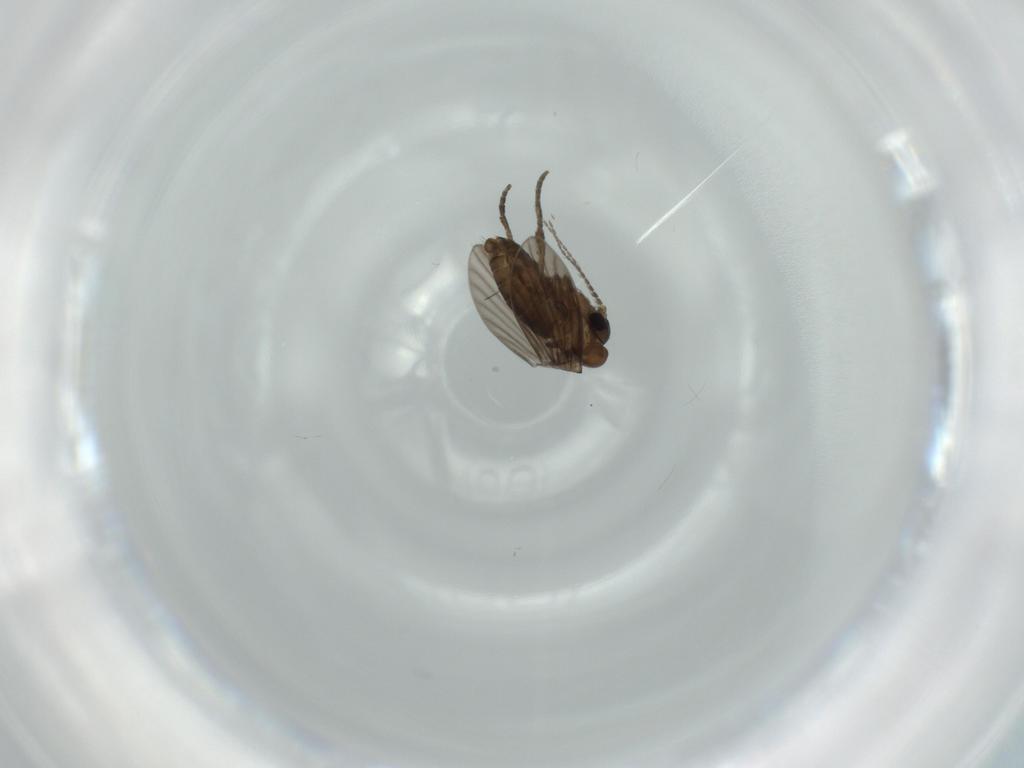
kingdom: Animalia
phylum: Arthropoda
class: Insecta
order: Diptera
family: Psychodidae
